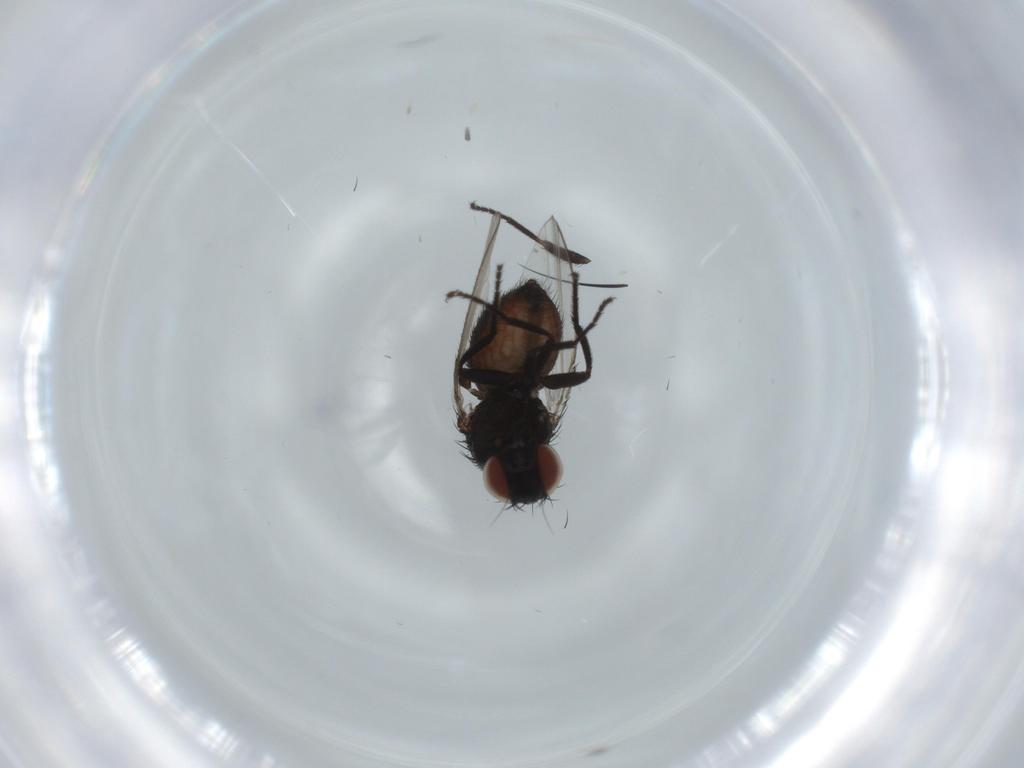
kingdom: Animalia
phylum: Arthropoda
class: Insecta
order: Diptera
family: Milichiidae
